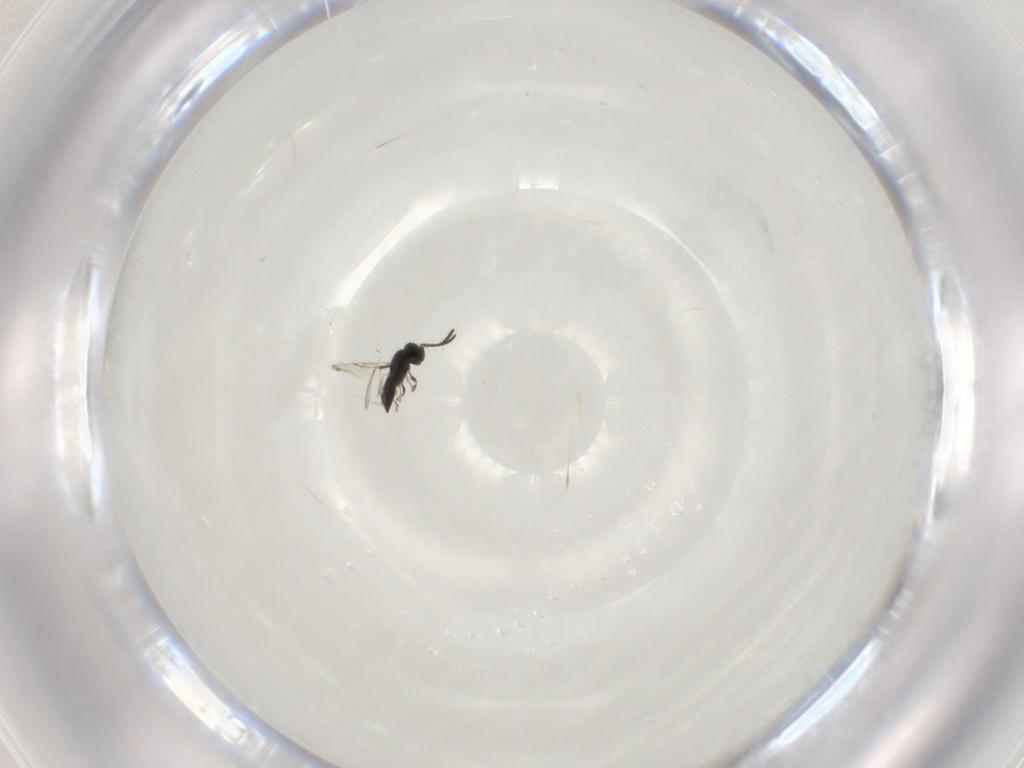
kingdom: Animalia
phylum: Arthropoda
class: Insecta
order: Hymenoptera
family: Scelionidae
